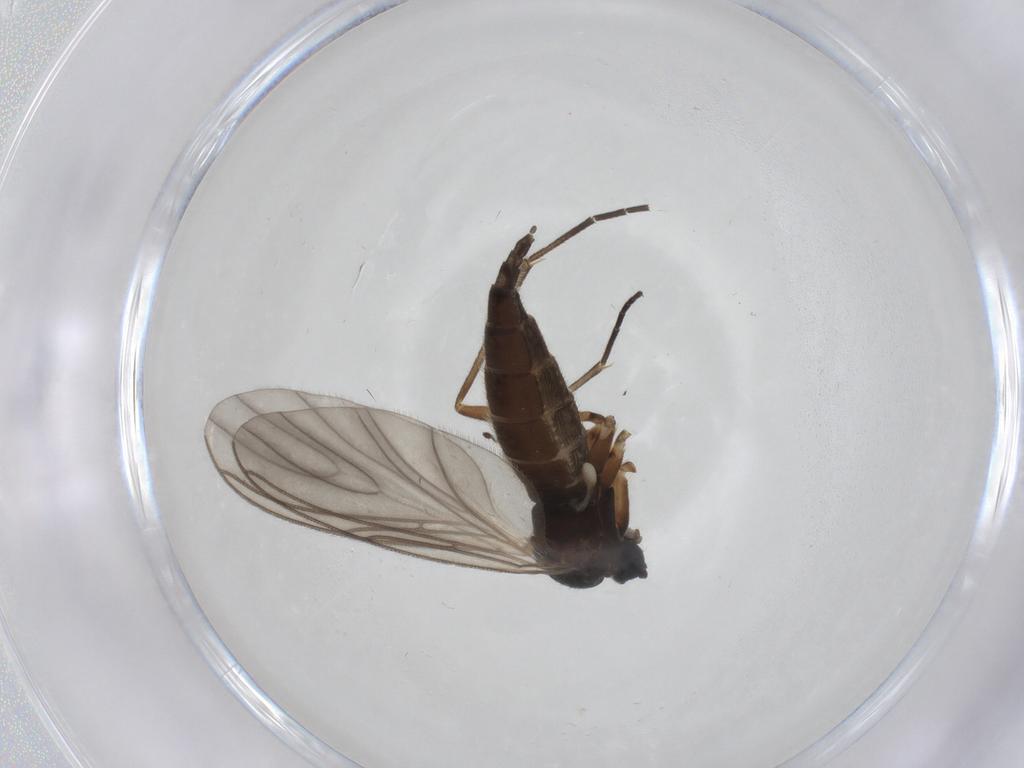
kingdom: Animalia
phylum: Arthropoda
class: Insecta
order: Diptera
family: Sciaridae
